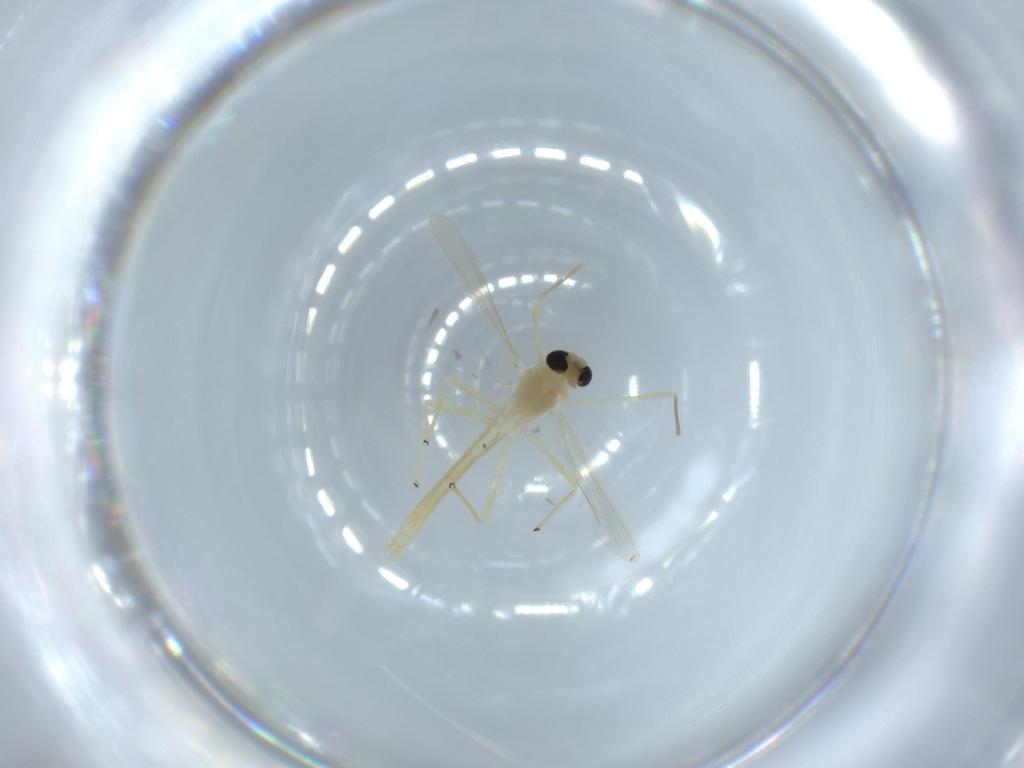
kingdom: Animalia
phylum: Arthropoda
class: Insecta
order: Diptera
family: Chironomidae
